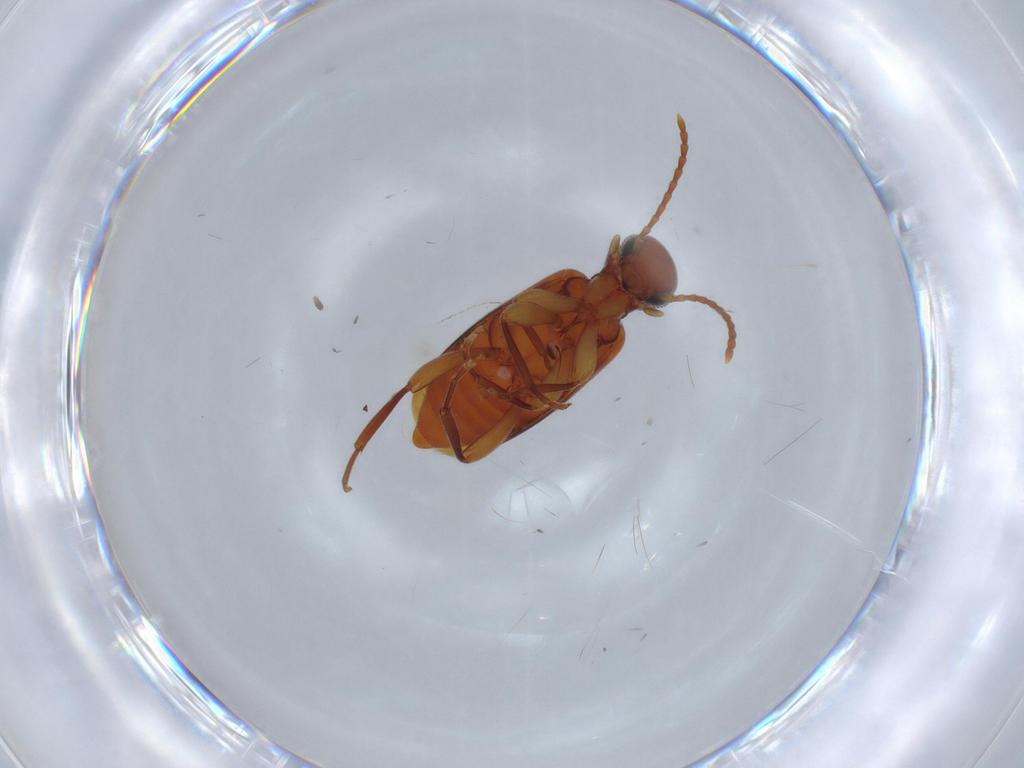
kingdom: Animalia
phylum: Arthropoda
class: Insecta
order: Coleoptera
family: Anthicidae
